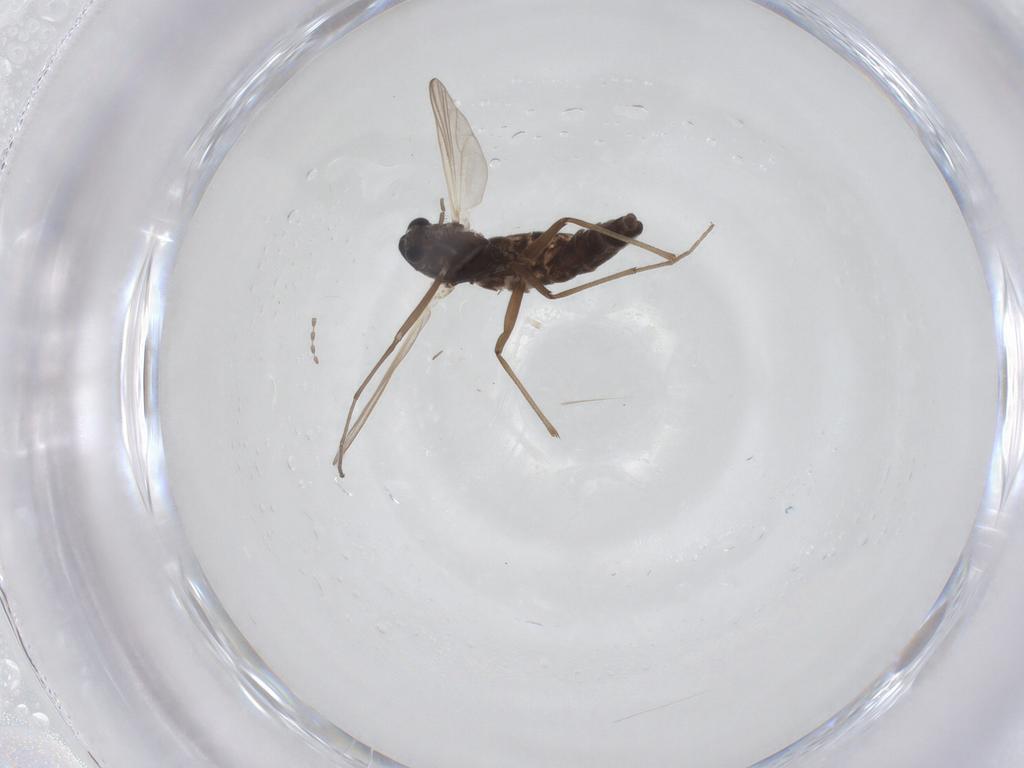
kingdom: Animalia
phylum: Arthropoda
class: Insecta
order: Diptera
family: Chironomidae
